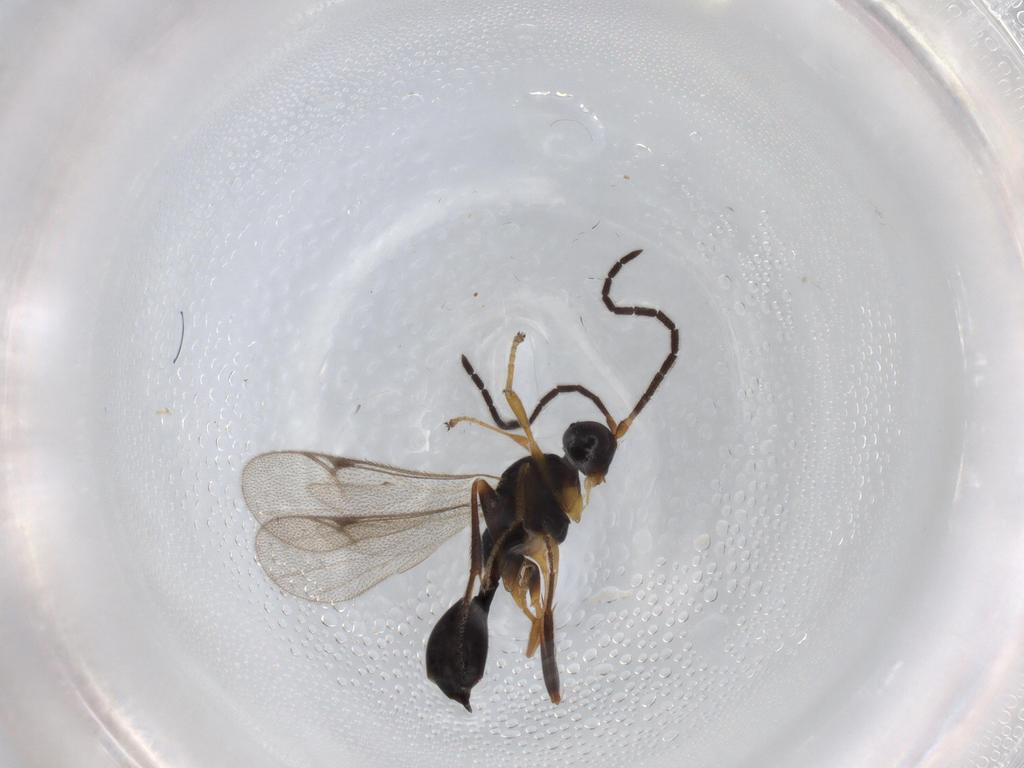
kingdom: Animalia
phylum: Arthropoda
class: Insecta
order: Hymenoptera
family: Proctotrupidae
